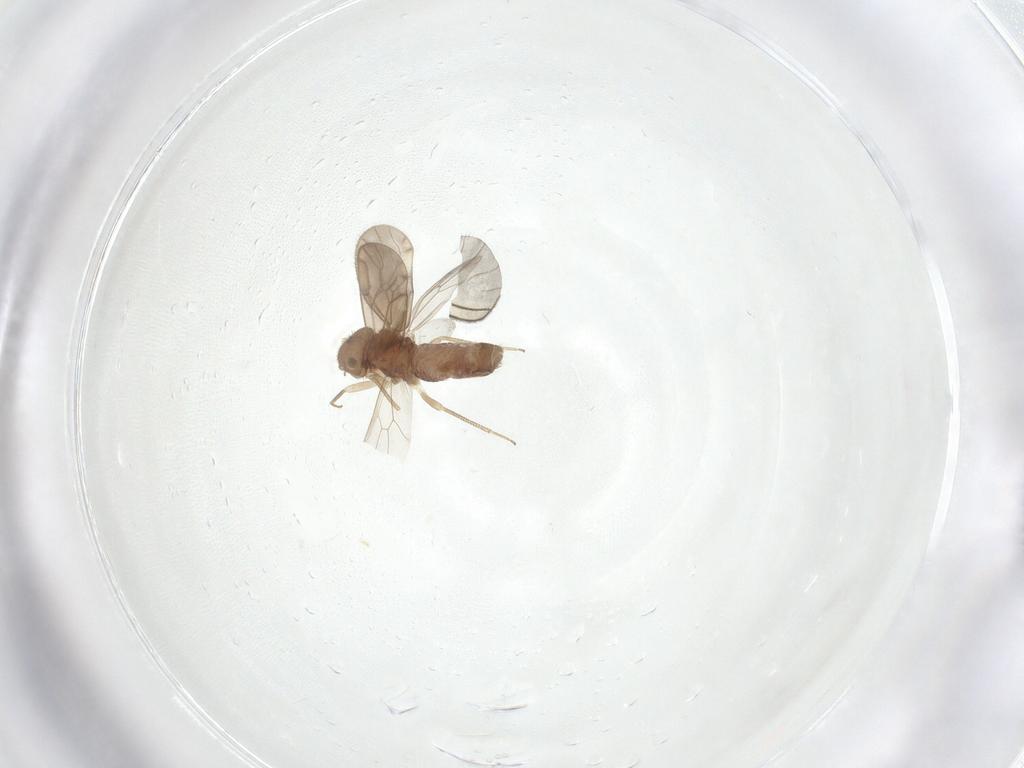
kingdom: Animalia
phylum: Arthropoda
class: Insecta
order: Psocodea
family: Ectopsocidae
